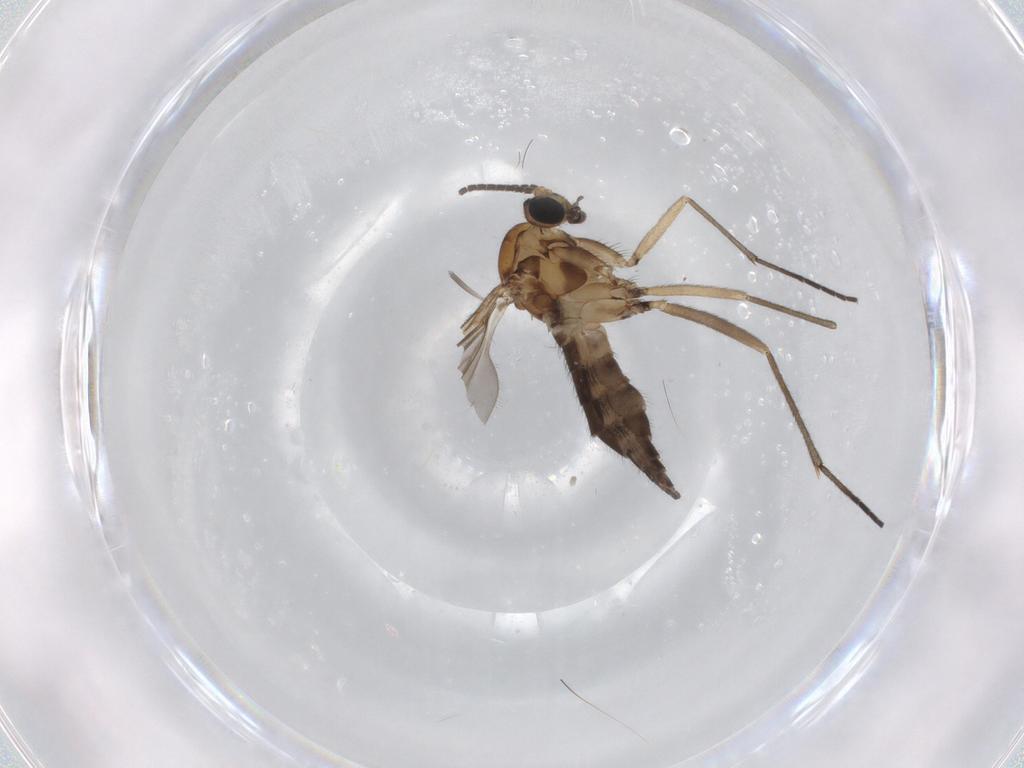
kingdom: Animalia
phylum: Arthropoda
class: Insecta
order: Diptera
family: Sciaridae
